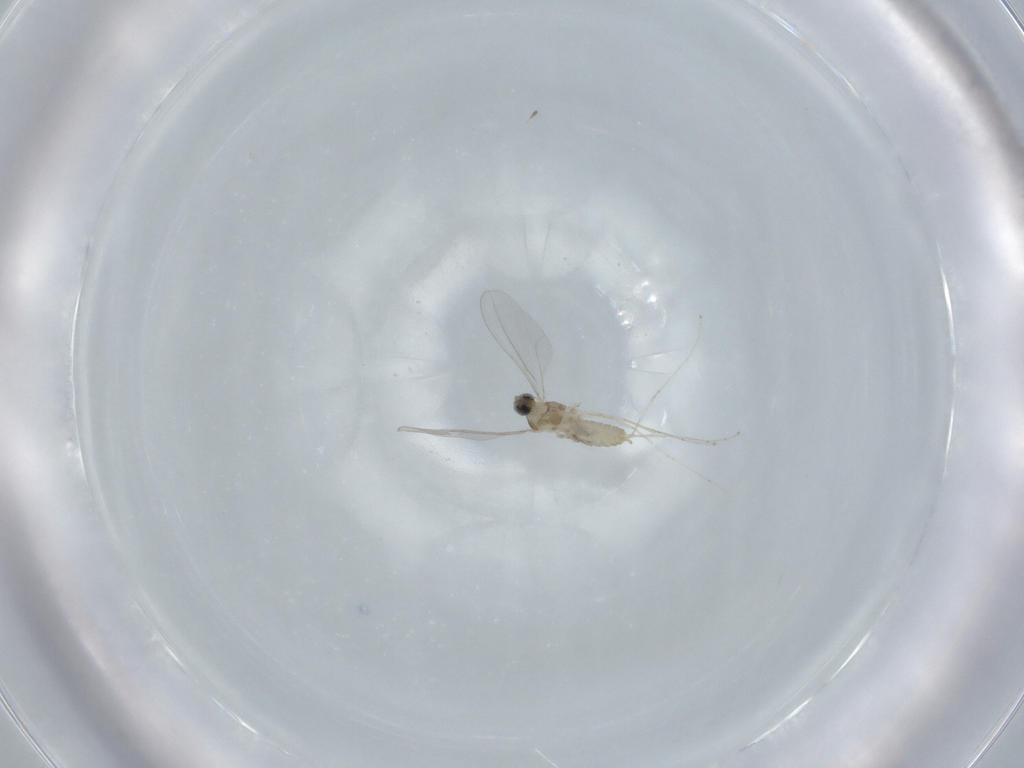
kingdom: Animalia
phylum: Arthropoda
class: Insecta
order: Diptera
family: Cecidomyiidae
